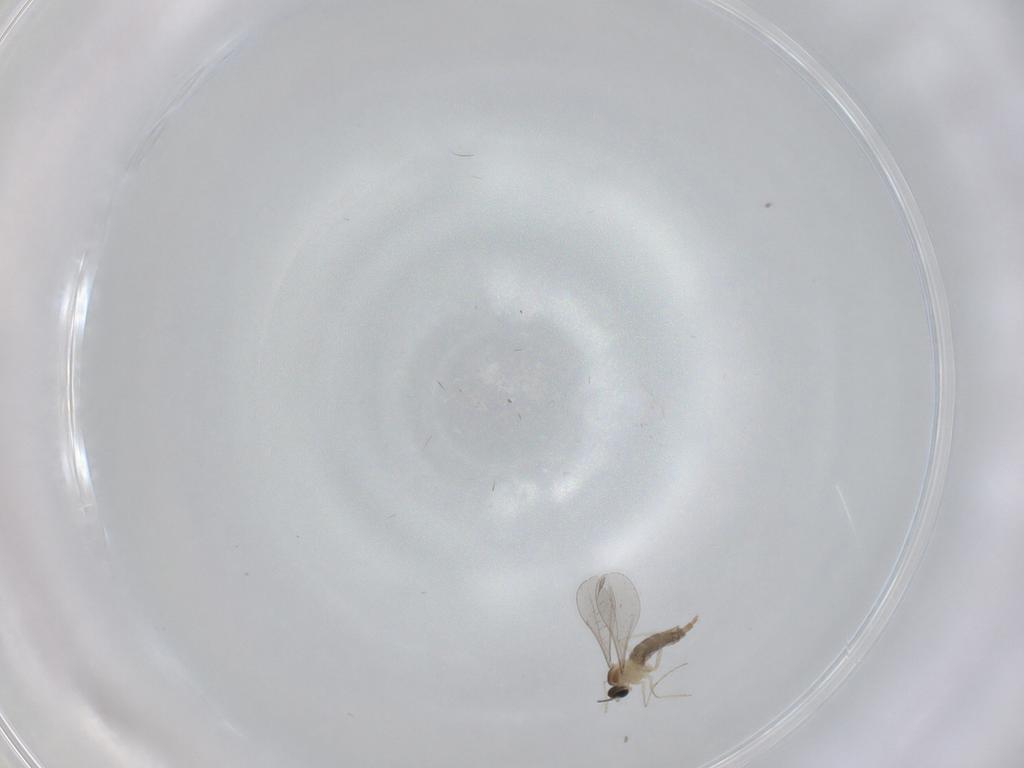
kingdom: Animalia
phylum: Arthropoda
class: Insecta
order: Diptera
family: Cecidomyiidae
